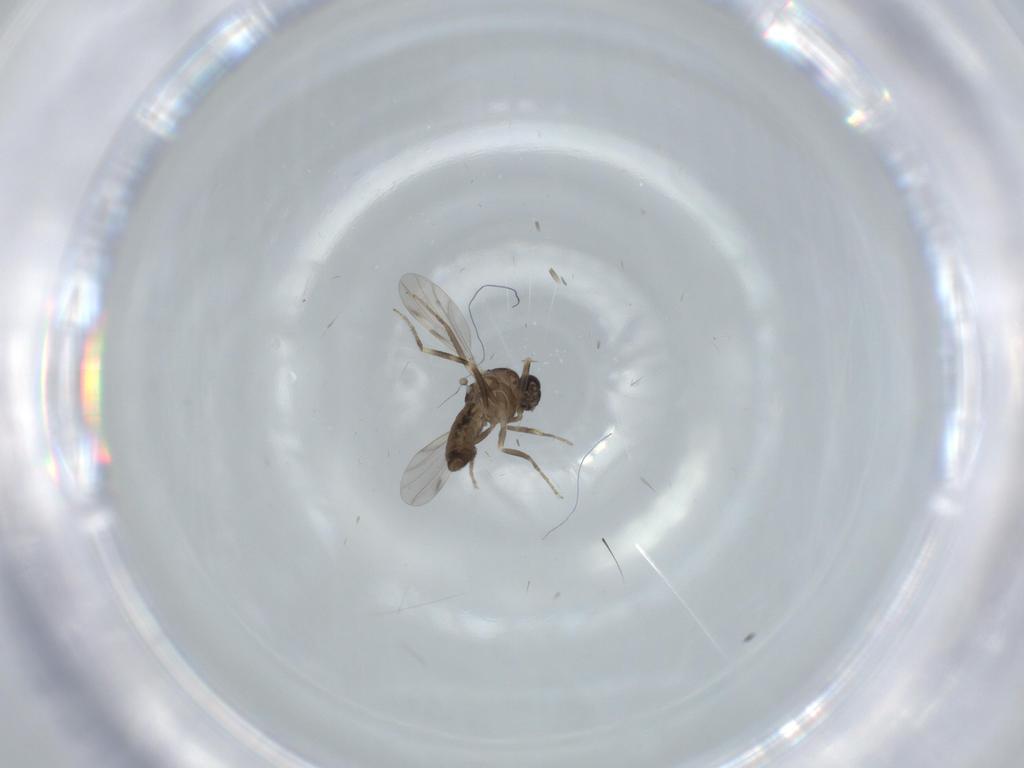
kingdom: Animalia
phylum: Arthropoda
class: Insecta
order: Diptera
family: Ceratopogonidae
